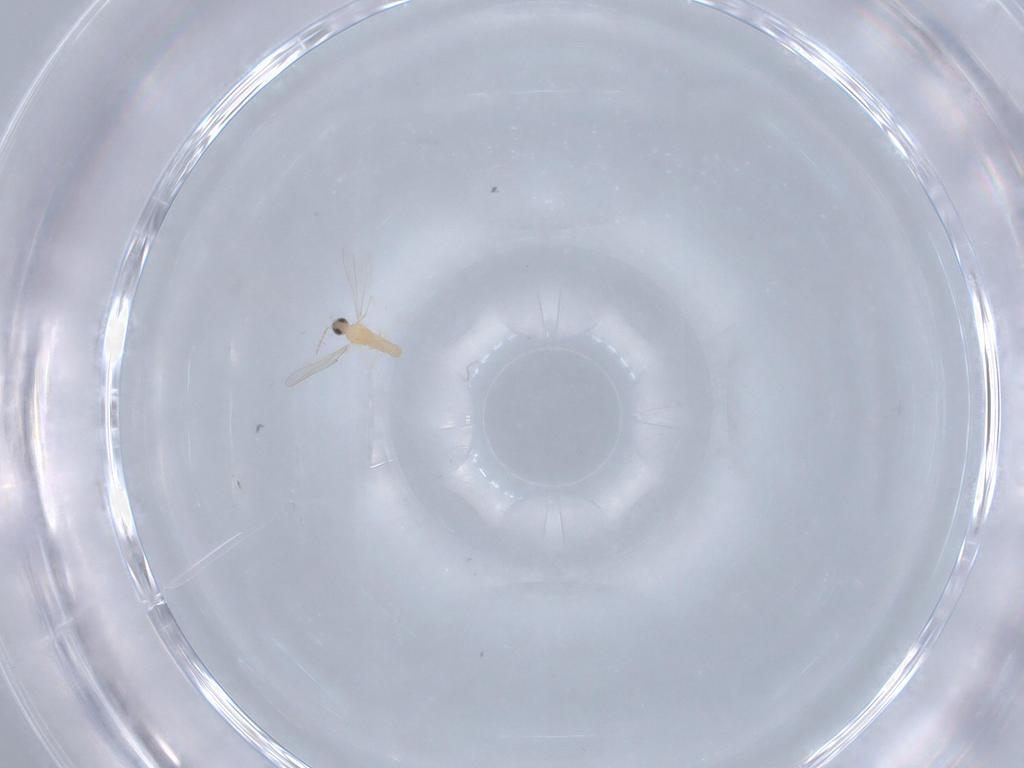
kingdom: Animalia
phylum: Arthropoda
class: Insecta
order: Diptera
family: Cecidomyiidae
